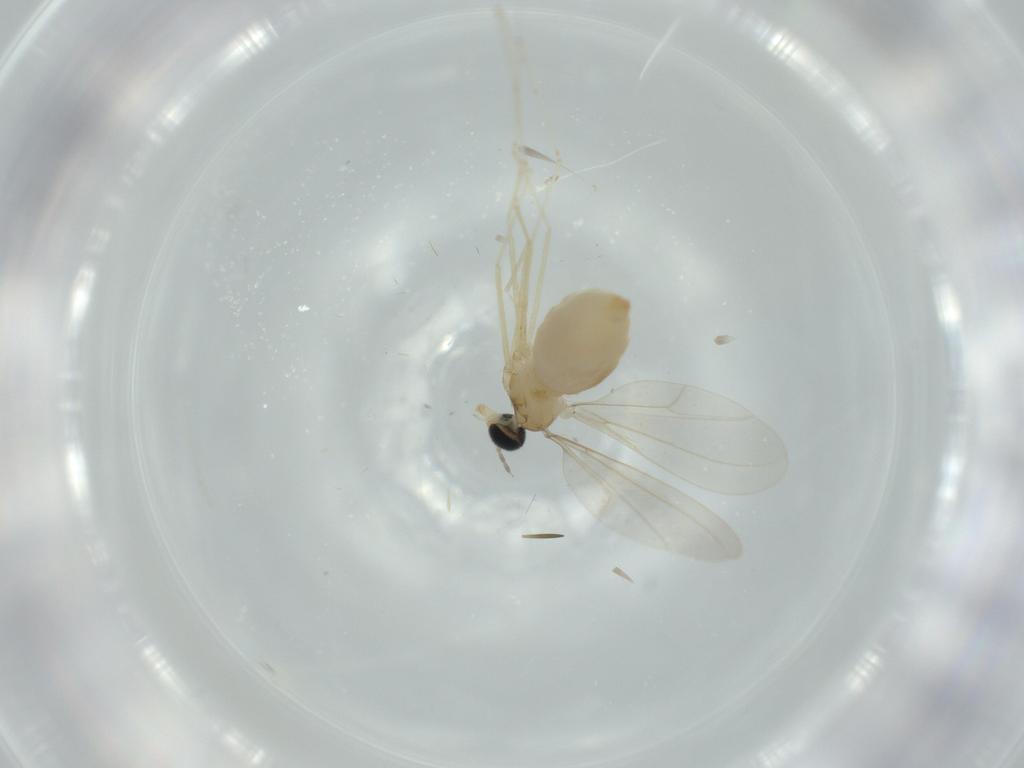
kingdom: Animalia
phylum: Arthropoda
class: Insecta
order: Diptera
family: Cecidomyiidae
